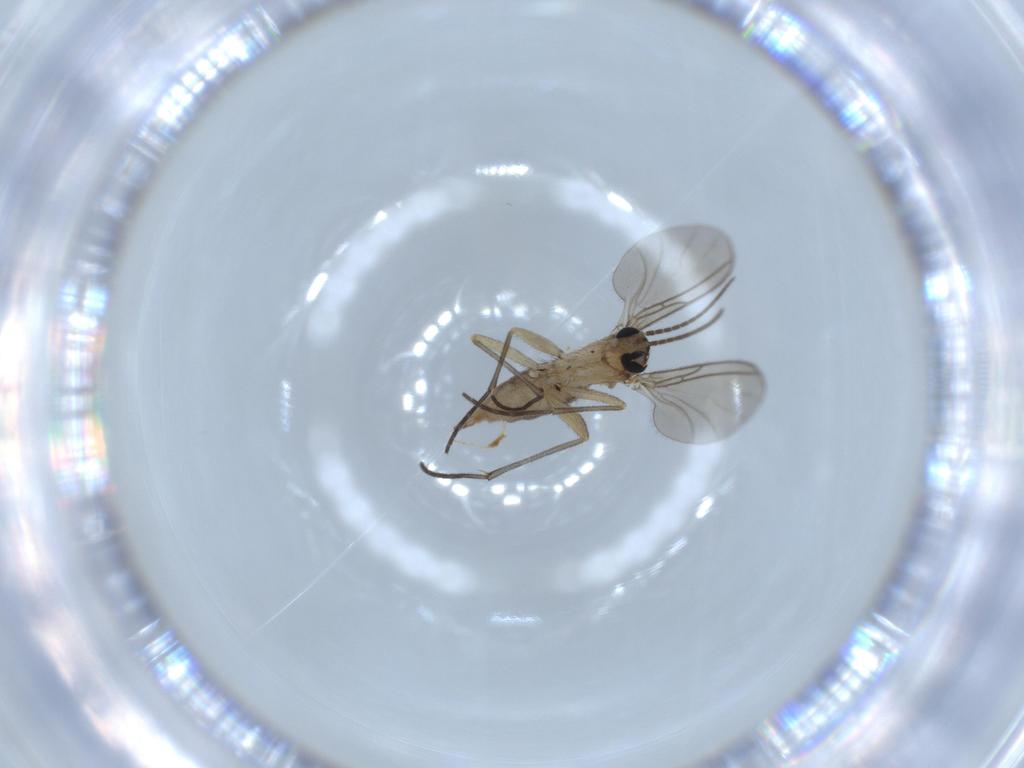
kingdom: Animalia
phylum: Arthropoda
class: Insecta
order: Diptera
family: Sciaridae
